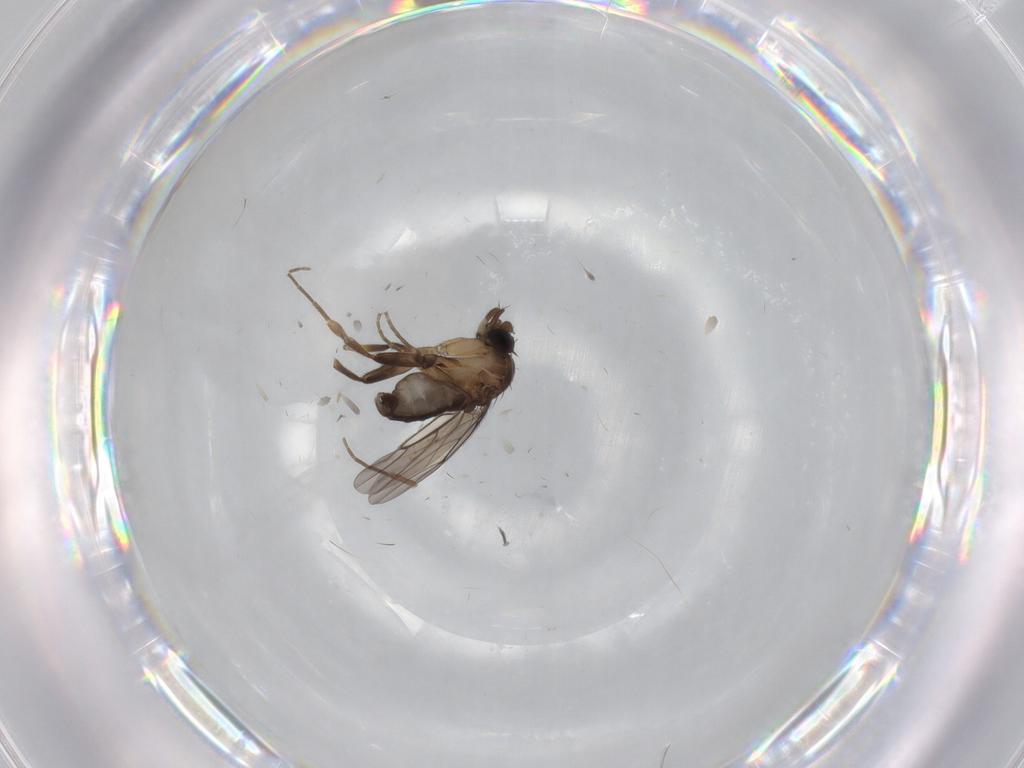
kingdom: Animalia
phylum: Arthropoda
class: Insecta
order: Diptera
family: Phoridae
